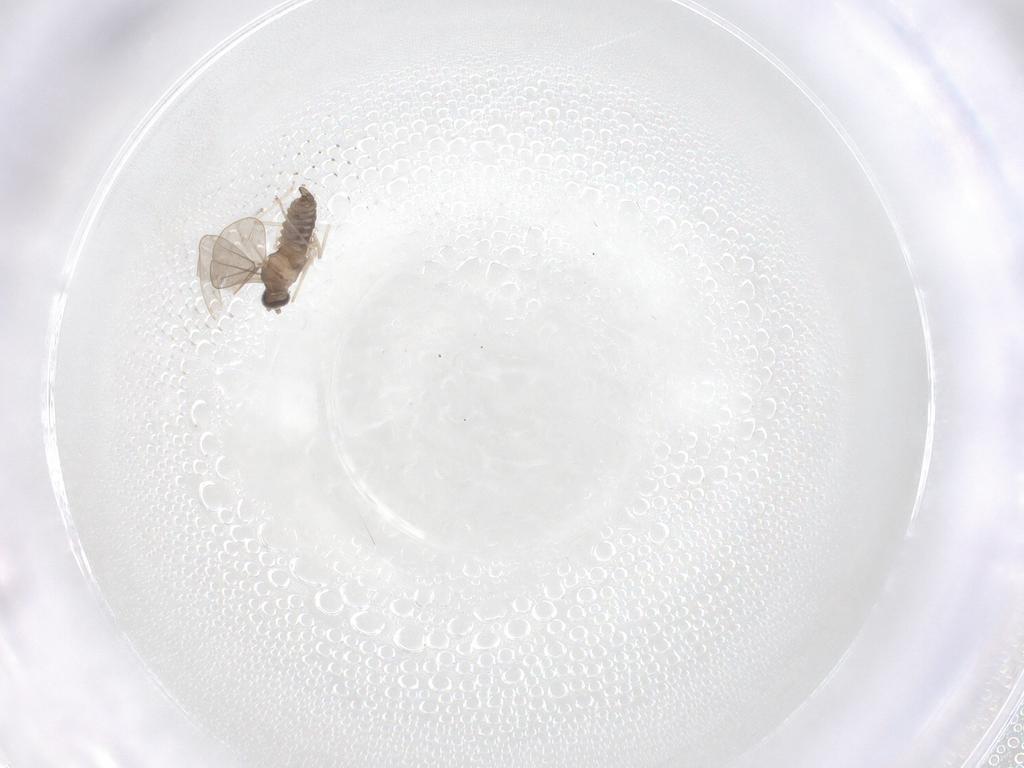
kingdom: Animalia
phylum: Arthropoda
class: Insecta
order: Diptera
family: Cecidomyiidae
